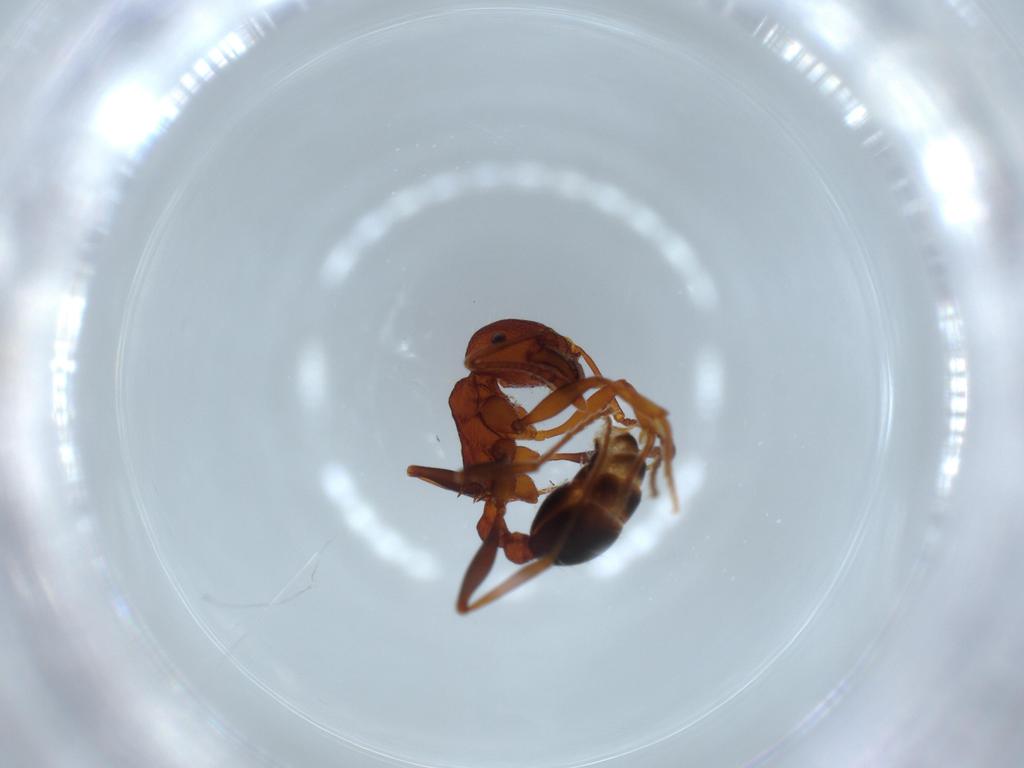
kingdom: Animalia
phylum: Arthropoda
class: Insecta
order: Hymenoptera
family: Formicidae
